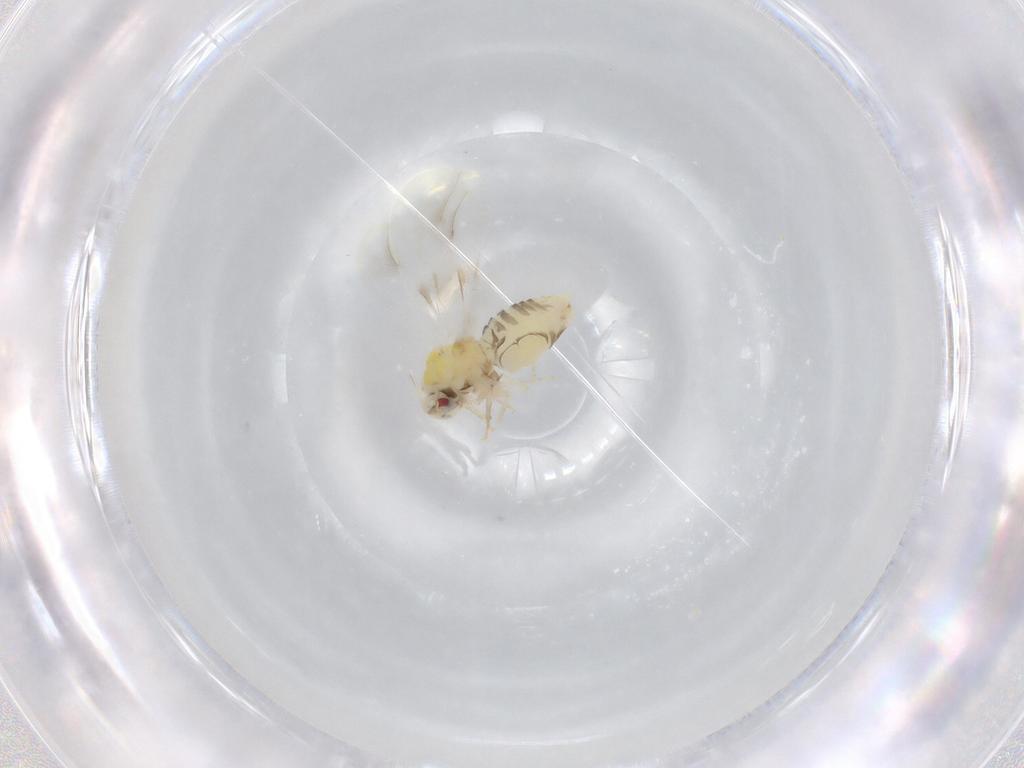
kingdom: Animalia
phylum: Arthropoda
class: Insecta
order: Hemiptera
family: Aleyrodidae
